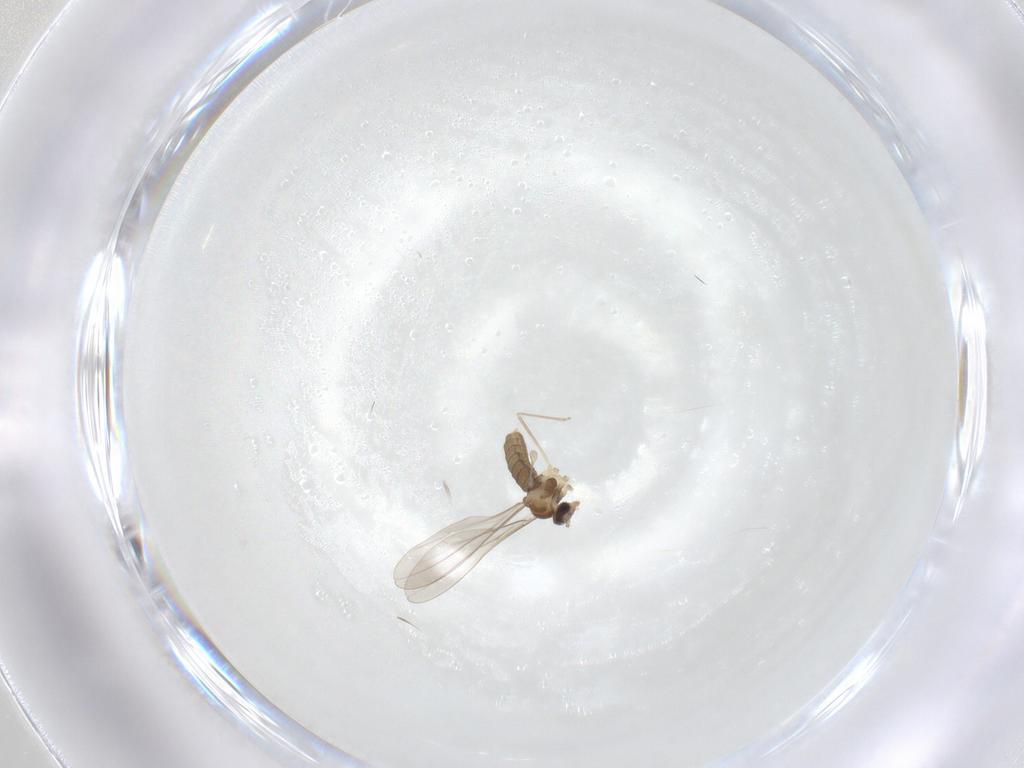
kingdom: Animalia
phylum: Arthropoda
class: Insecta
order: Diptera
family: Cecidomyiidae
